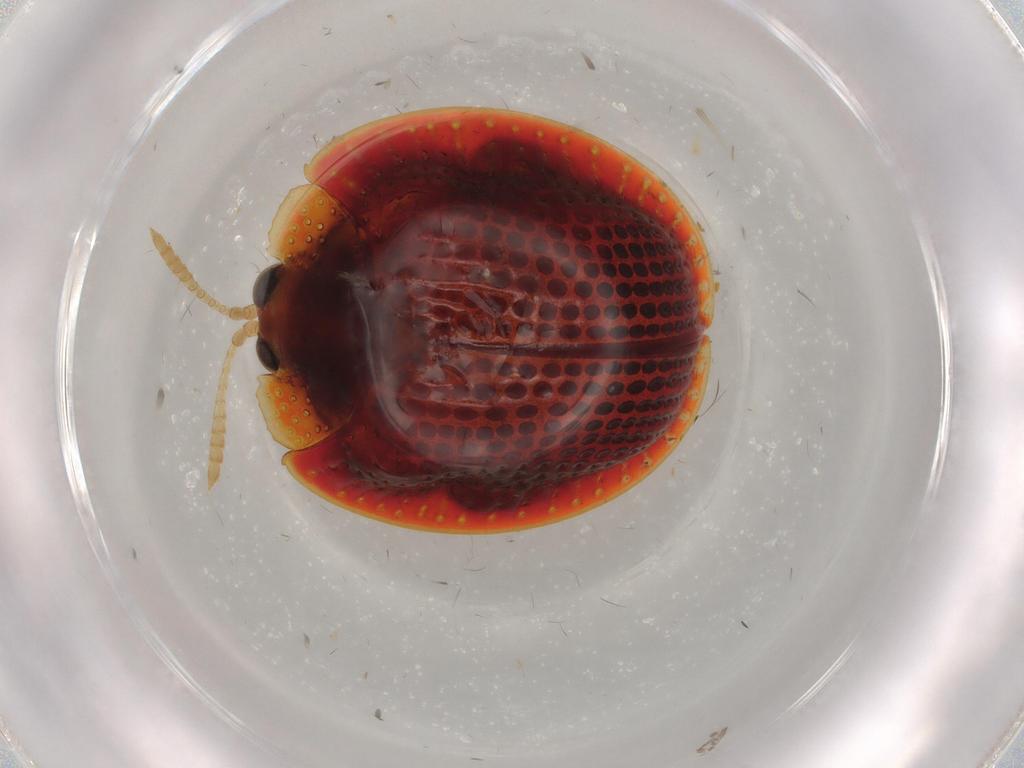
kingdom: Animalia
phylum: Arthropoda
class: Insecta
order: Coleoptera
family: Chrysomelidae
